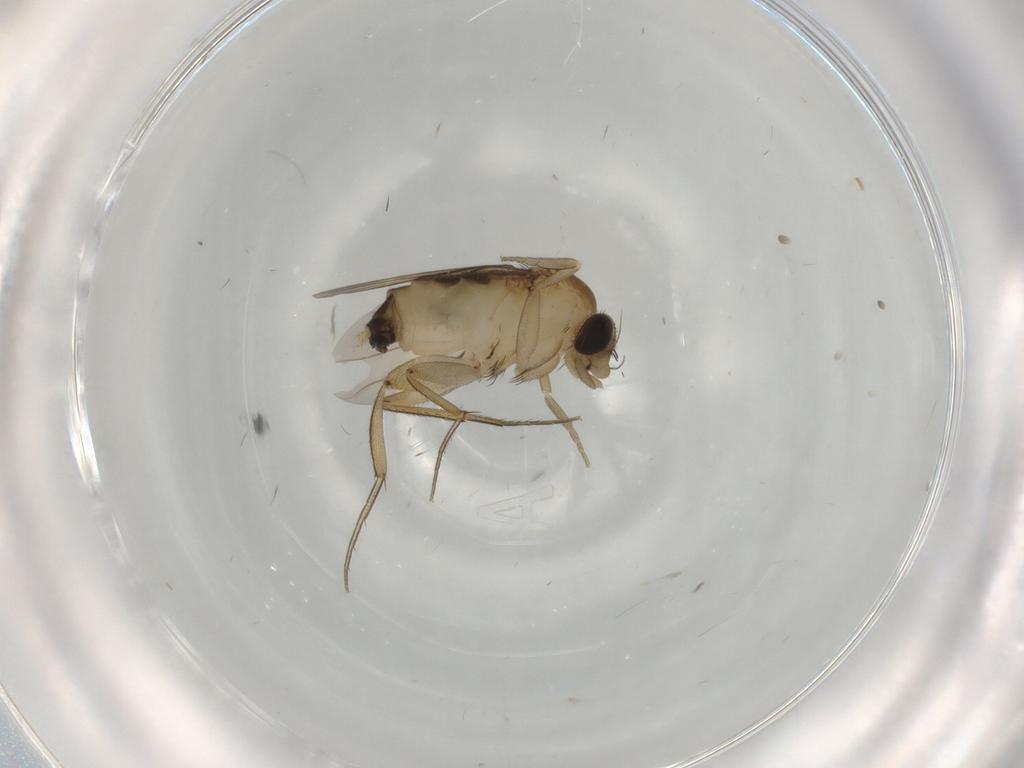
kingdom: Animalia
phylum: Arthropoda
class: Insecta
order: Diptera
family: Phoridae
